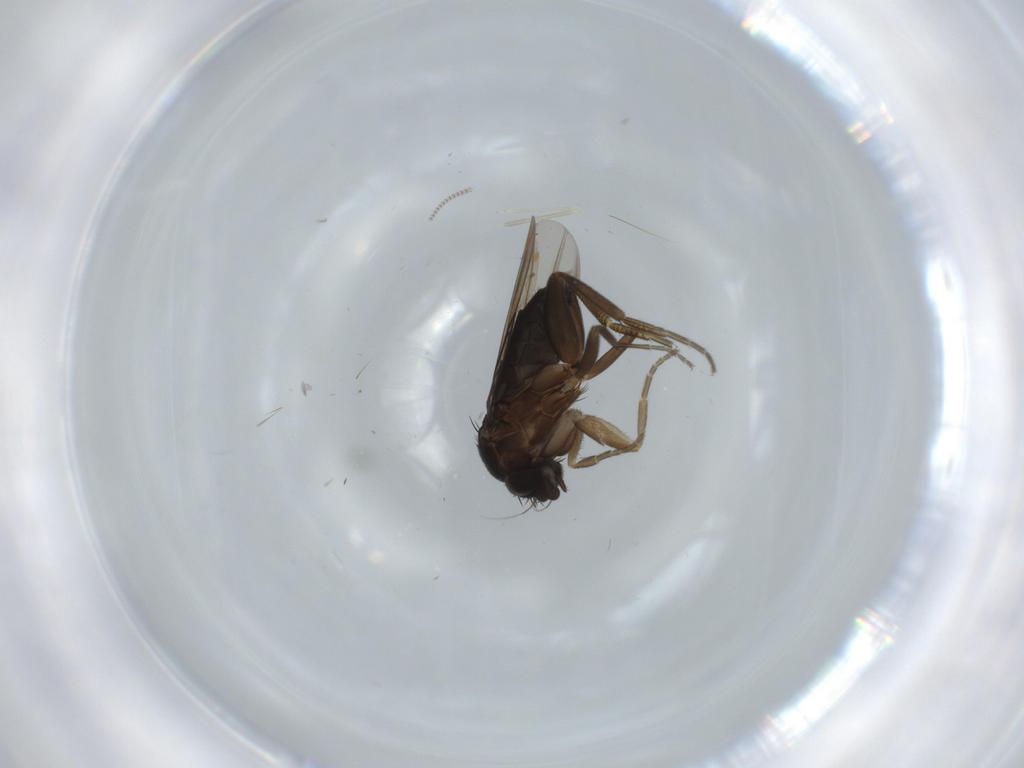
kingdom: Animalia
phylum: Arthropoda
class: Insecta
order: Diptera
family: Phoridae
